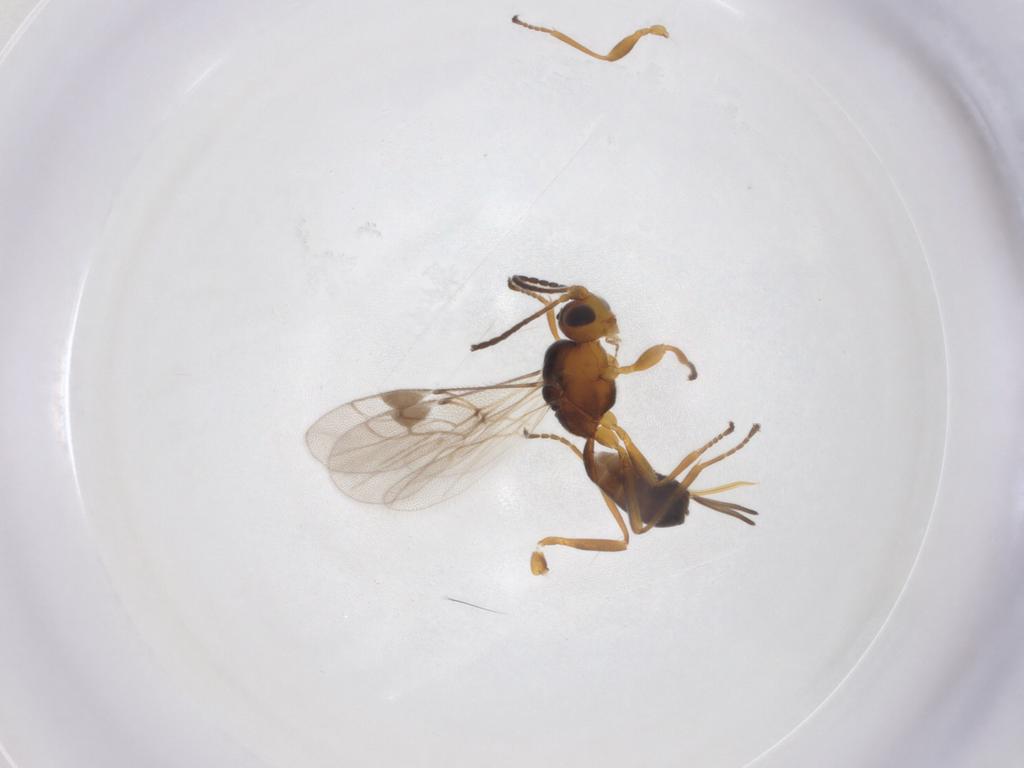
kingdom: Animalia
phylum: Arthropoda
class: Insecta
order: Hymenoptera
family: Braconidae
